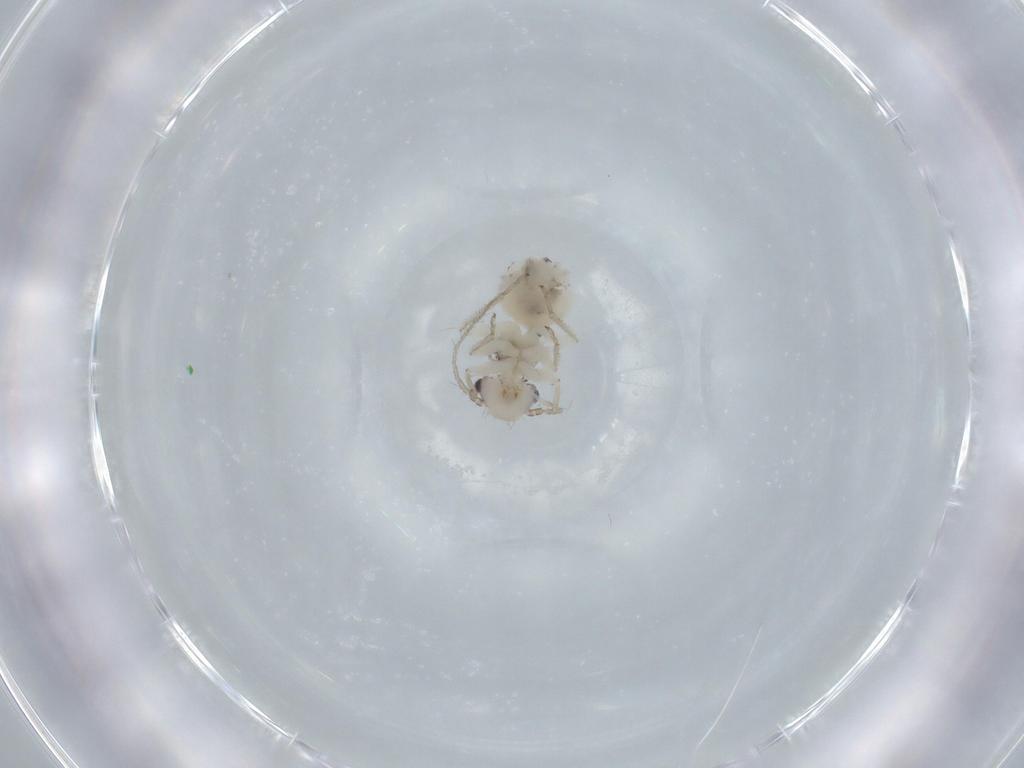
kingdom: Animalia
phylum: Arthropoda
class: Insecta
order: Psocodea
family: Pseudocaeciliidae
